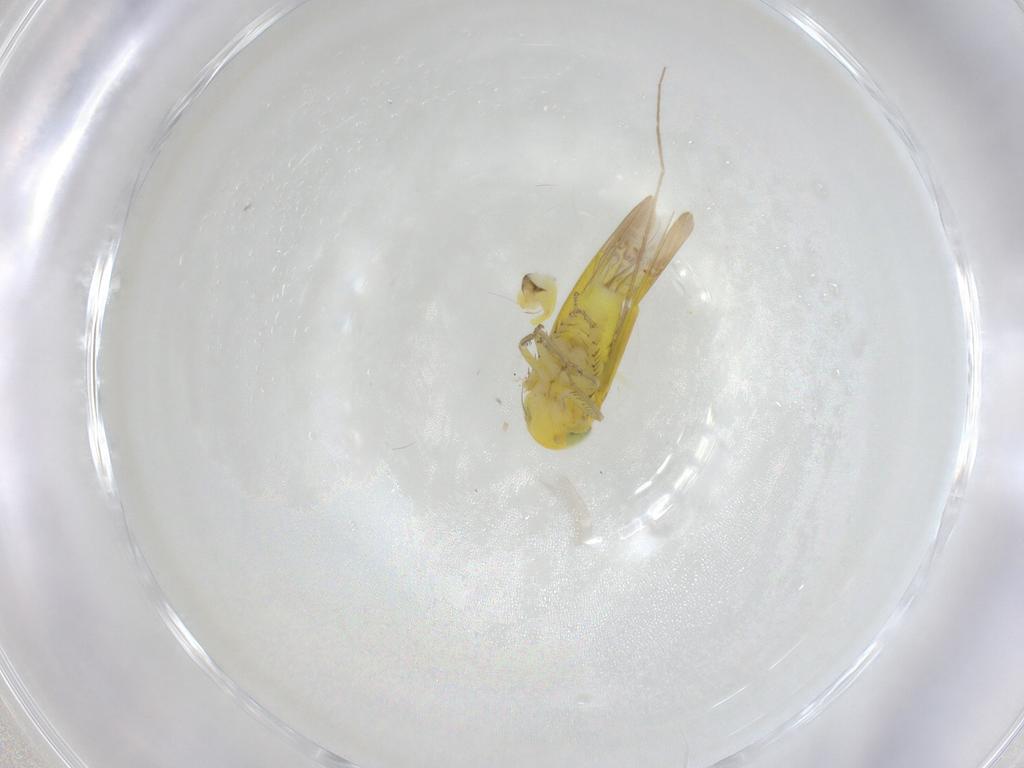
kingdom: Animalia
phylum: Arthropoda
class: Insecta
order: Hemiptera
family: Cicadellidae
